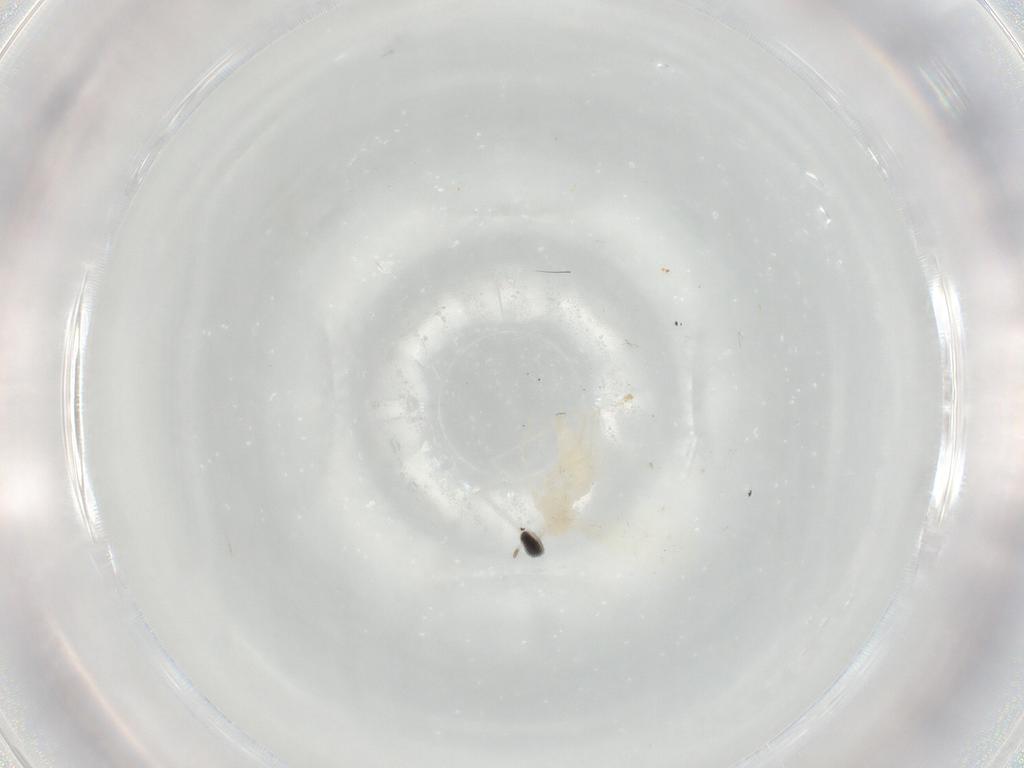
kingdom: Animalia
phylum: Arthropoda
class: Insecta
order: Diptera
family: Cecidomyiidae
